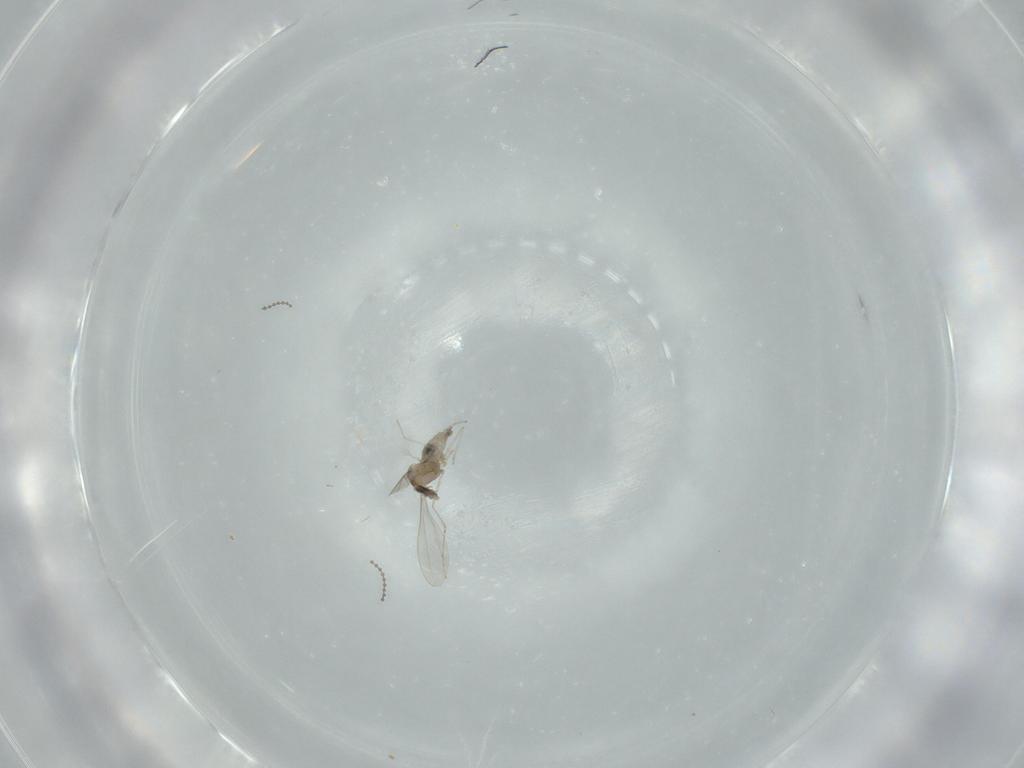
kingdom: Animalia
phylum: Arthropoda
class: Insecta
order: Diptera
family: Cecidomyiidae
